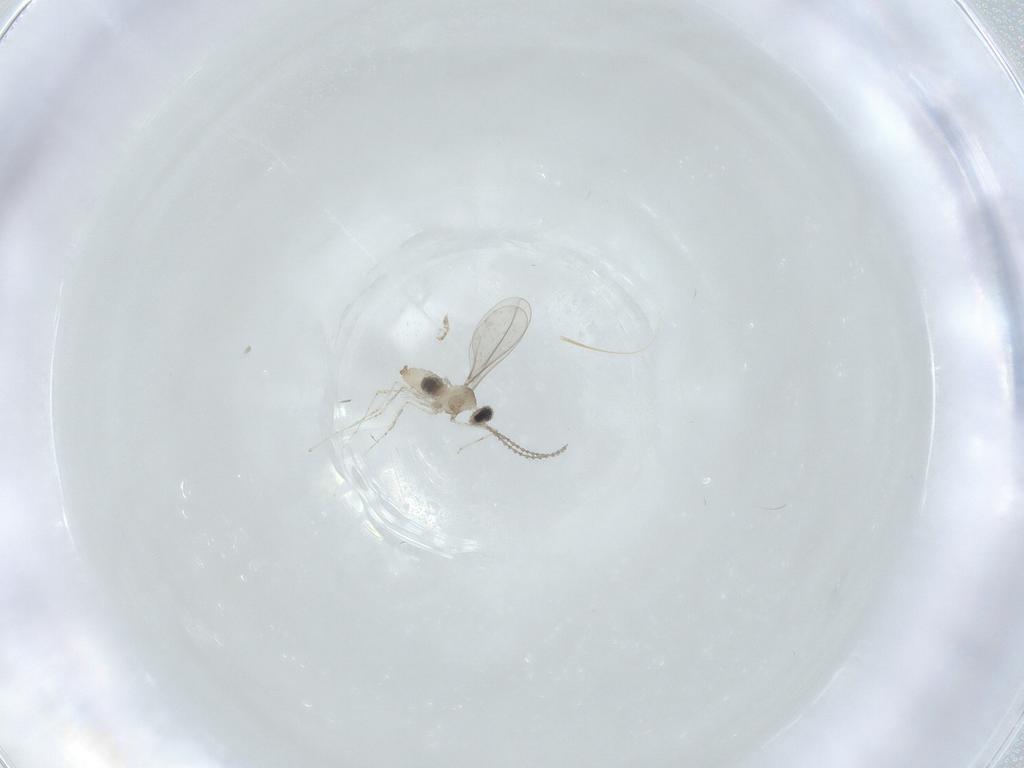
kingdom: Animalia
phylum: Arthropoda
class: Insecta
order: Diptera
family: Cecidomyiidae
